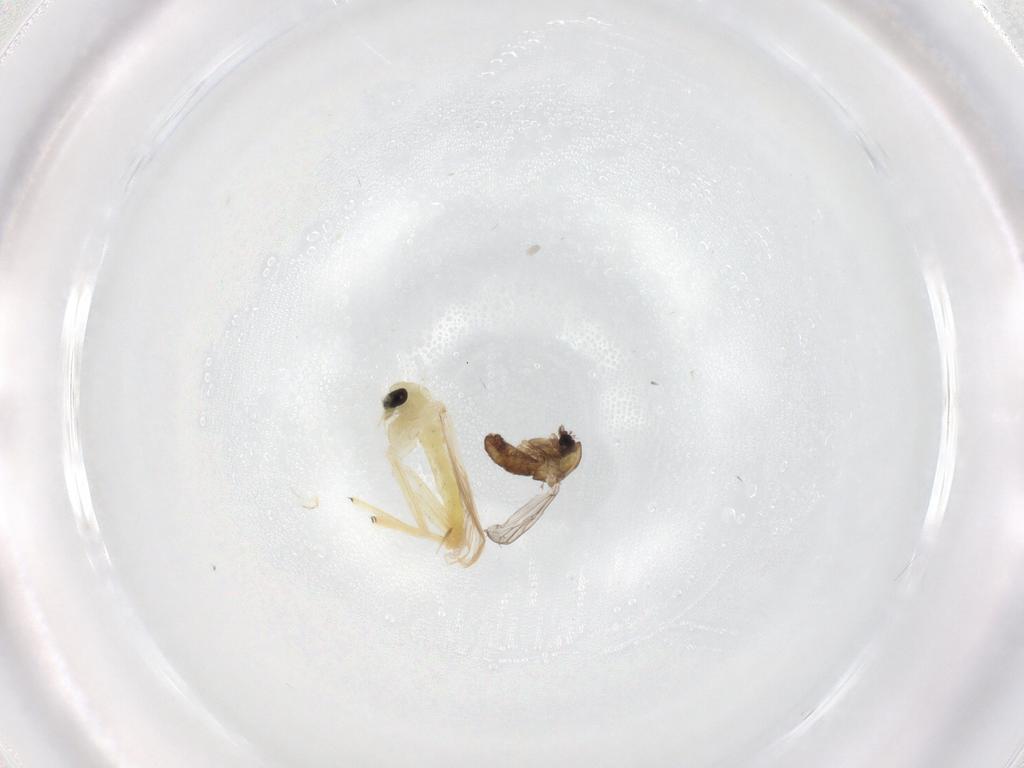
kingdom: Animalia
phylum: Arthropoda
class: Insecta
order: Diptera
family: Chironomidae
